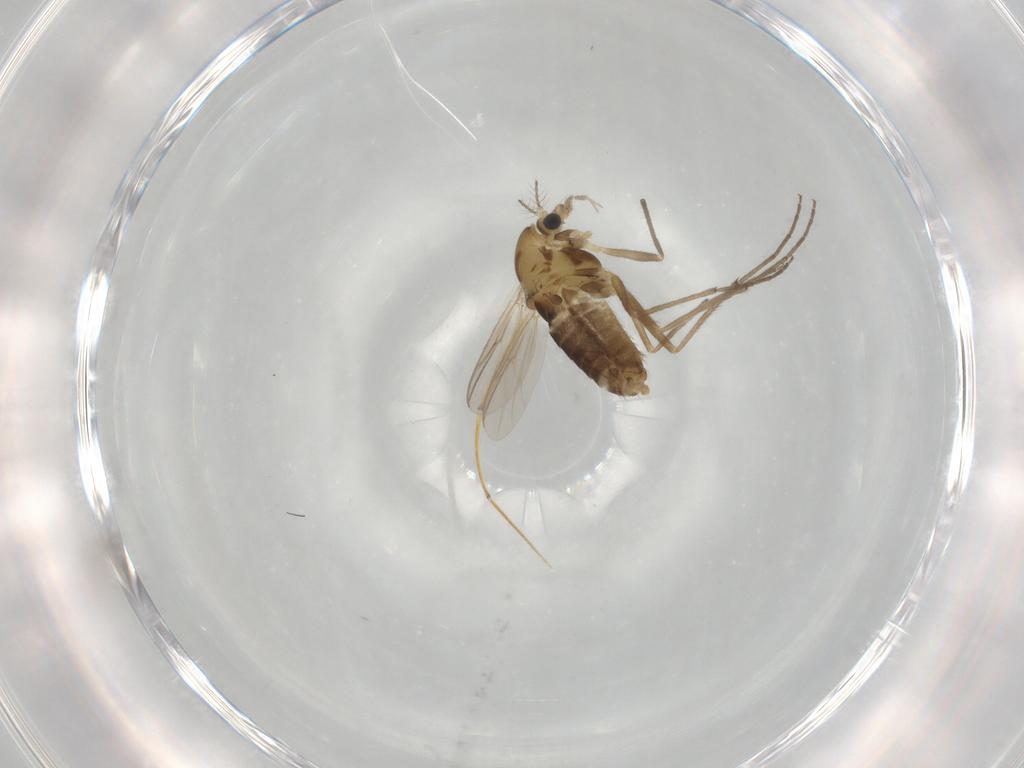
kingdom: Animalia
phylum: Arthropoda
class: Insecta
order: Diptera
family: Chironomidae
